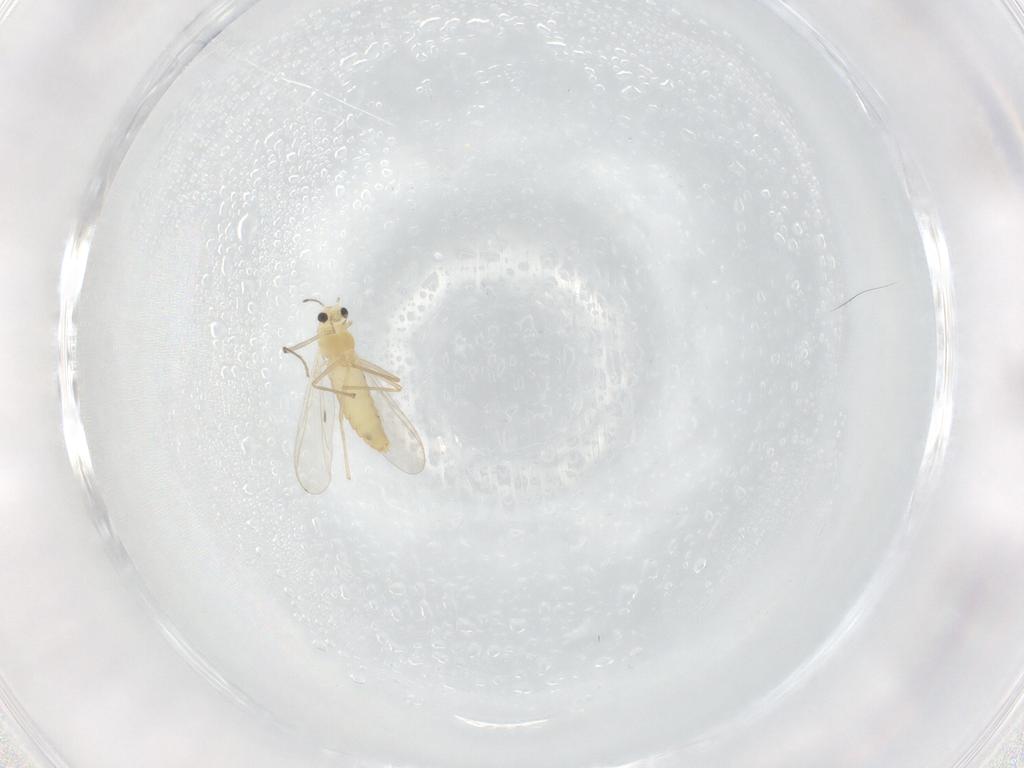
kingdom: Animalia
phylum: Arthropoda
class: Insecta
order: Diptera
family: Chironomidae
